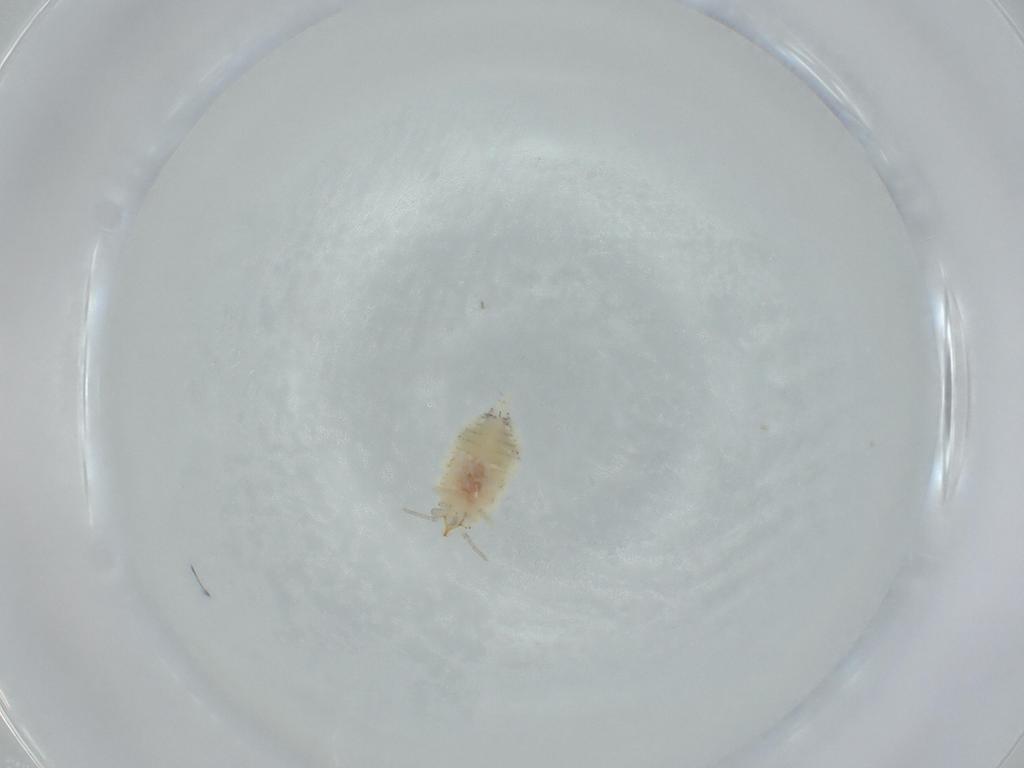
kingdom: Animalia
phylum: Arthropoda
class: Insecta
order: Neuroptera
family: Coniopterygidae
